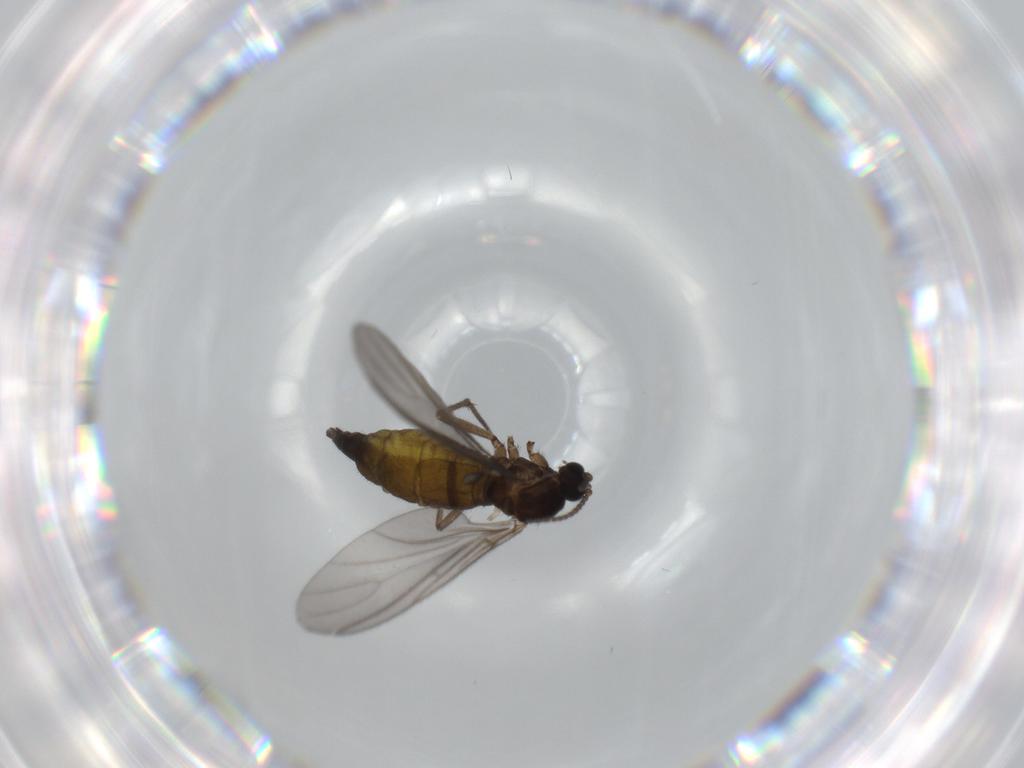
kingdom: Animalia
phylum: Arthropoda
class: Insecta
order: Diptera
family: Sciaridae
